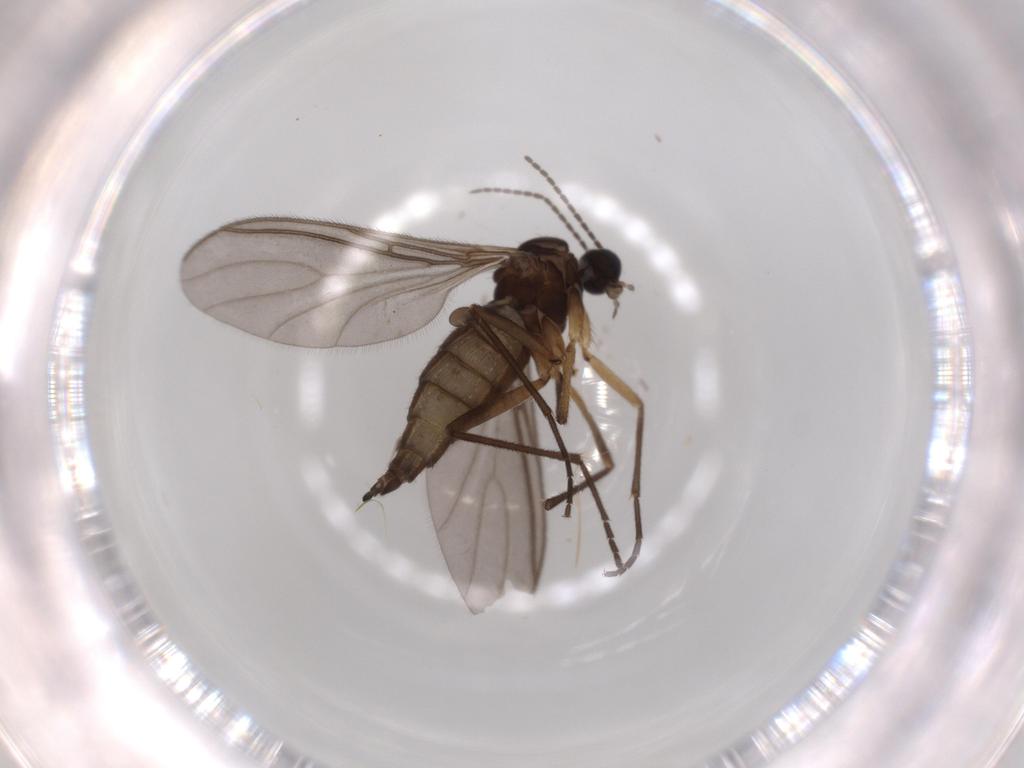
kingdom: Animalia
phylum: Arthropoda
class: Insecta
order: Diptera
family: Sciaridae
